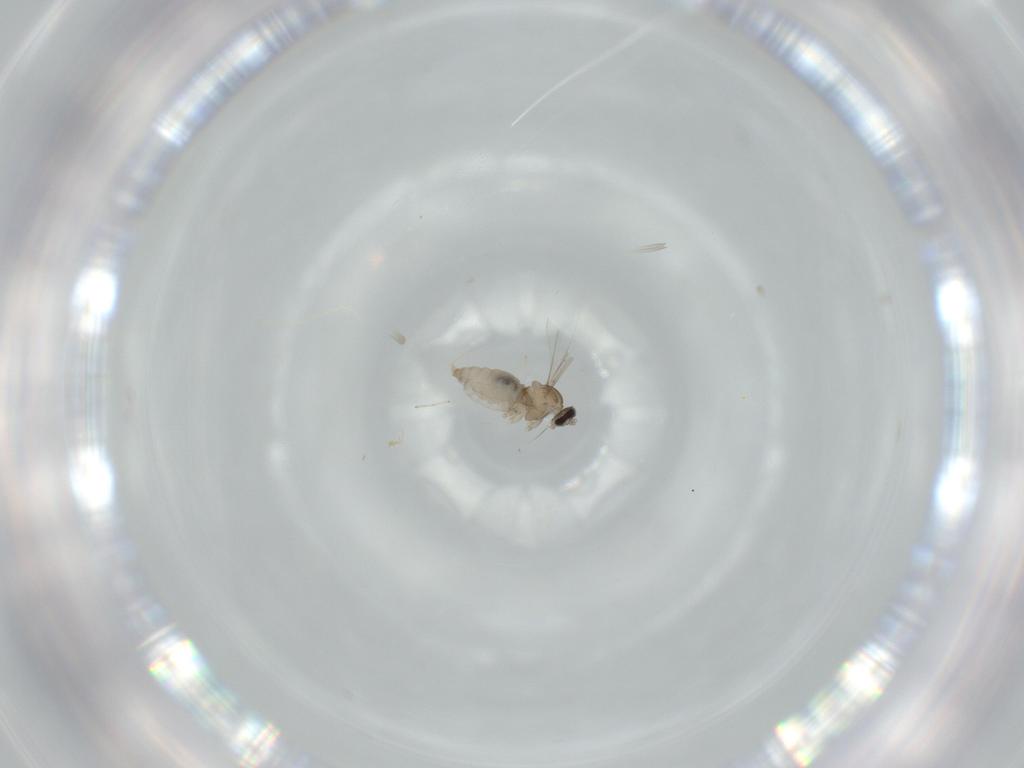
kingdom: Animalia
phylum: Arthropoda
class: Insecta
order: Diptera
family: Cecidomyiidae
